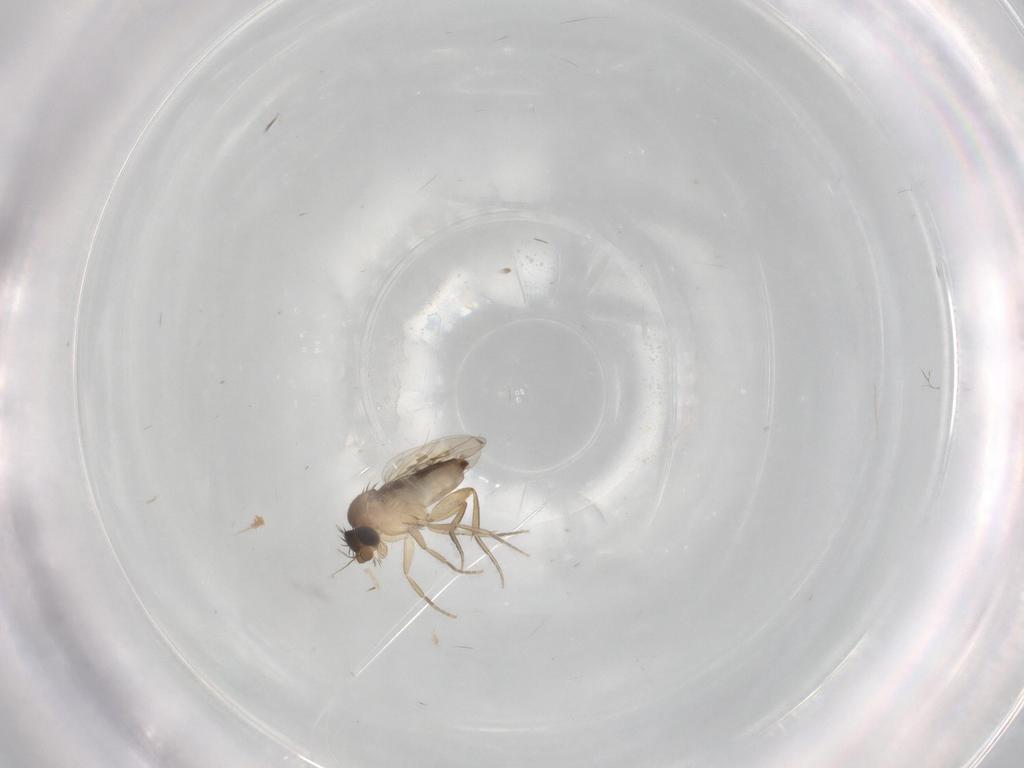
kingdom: Animalia
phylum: Arthropoda
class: Insecta
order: Diptera
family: Phoridae
